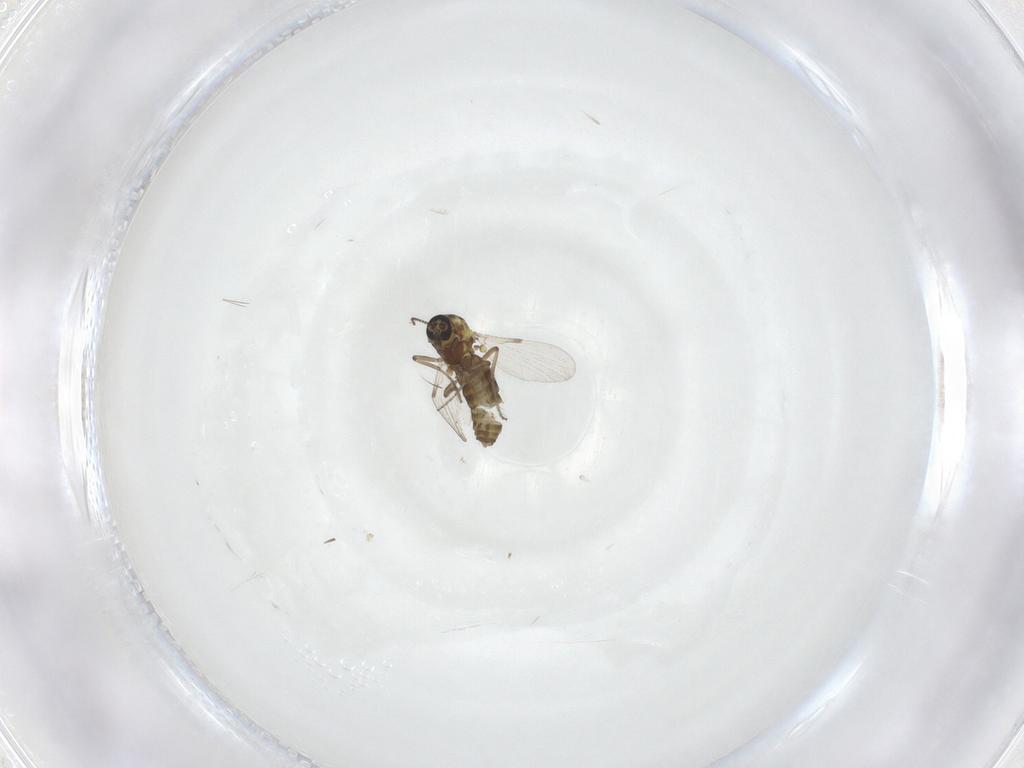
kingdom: Animalia
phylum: Arthropoda
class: Insecta
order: Diptera
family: Ceratopogonidae
